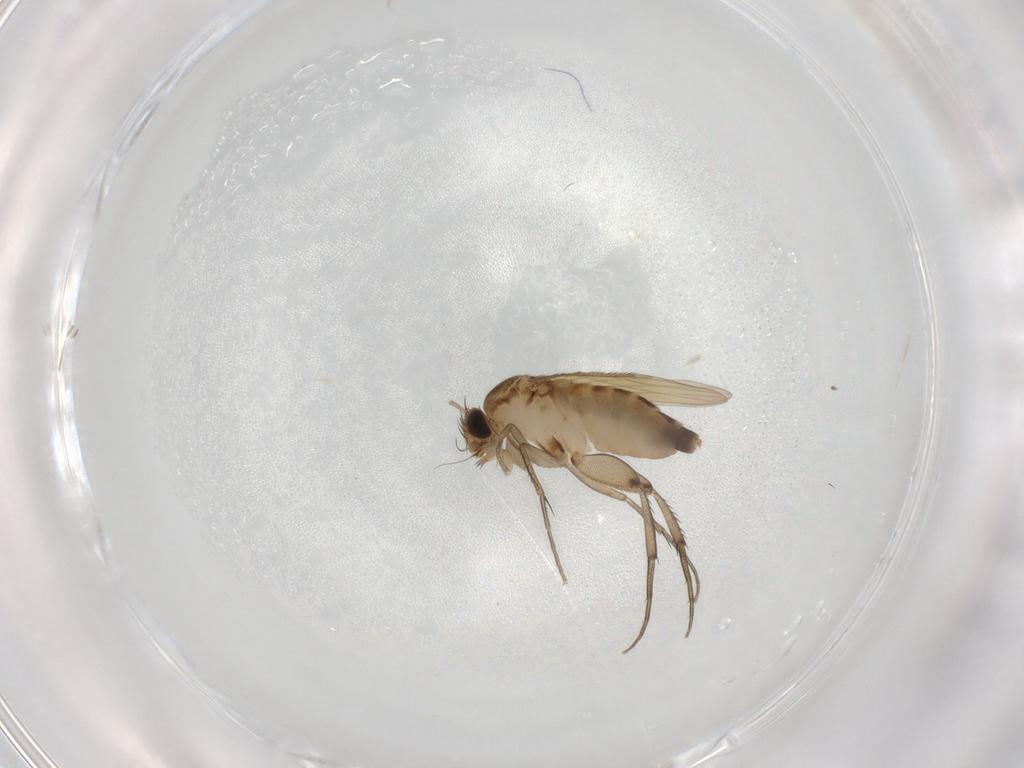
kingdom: Animalia
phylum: Arthropoda
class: Insecta
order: Diptera
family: Phoridae
